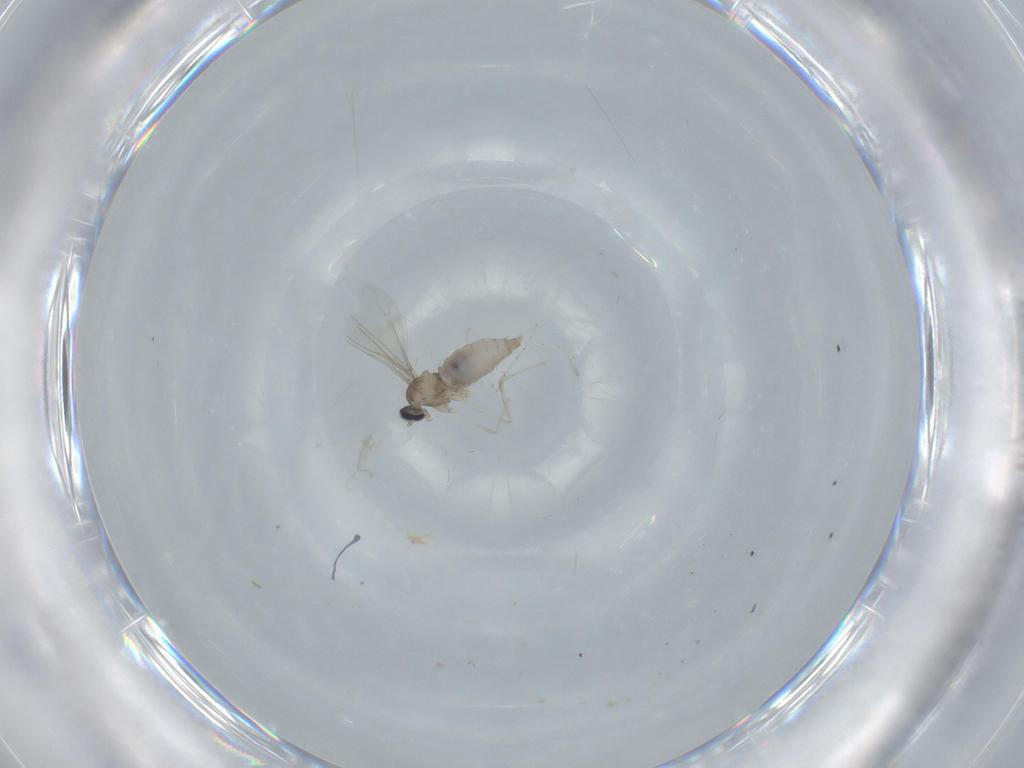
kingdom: Animalia
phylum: Arthropoda
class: Insecta
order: Diptera
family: Cecidomyiidae
